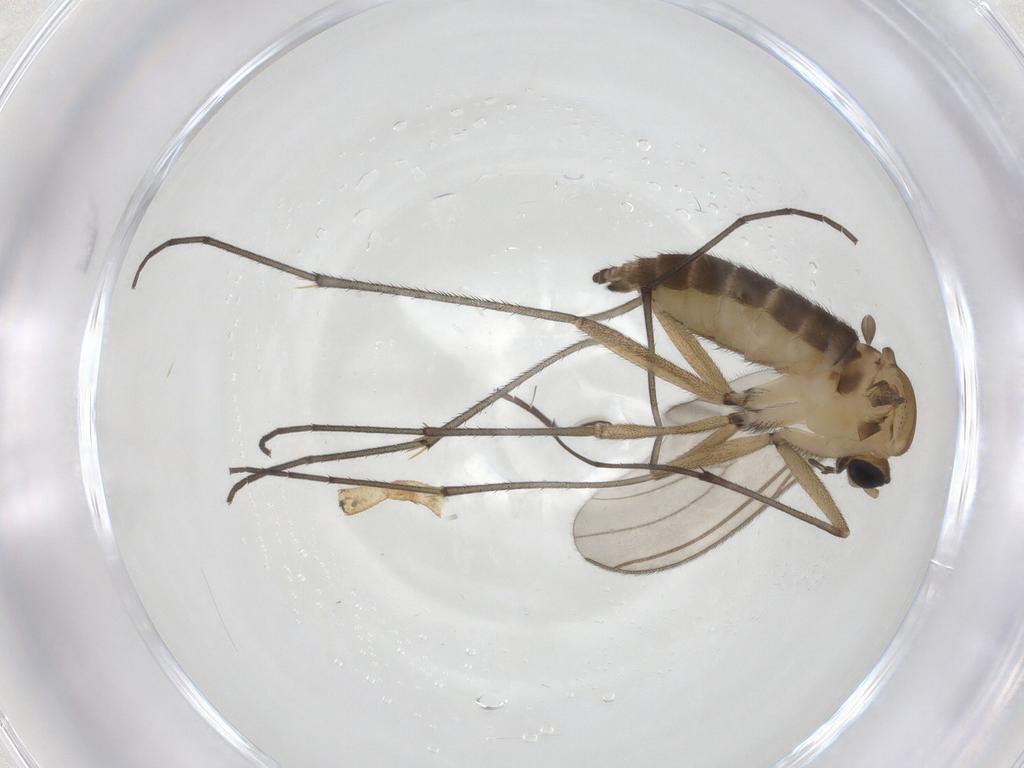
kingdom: Animalia
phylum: Arthropoda
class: Insecta
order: Diptera
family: Sciaridae
